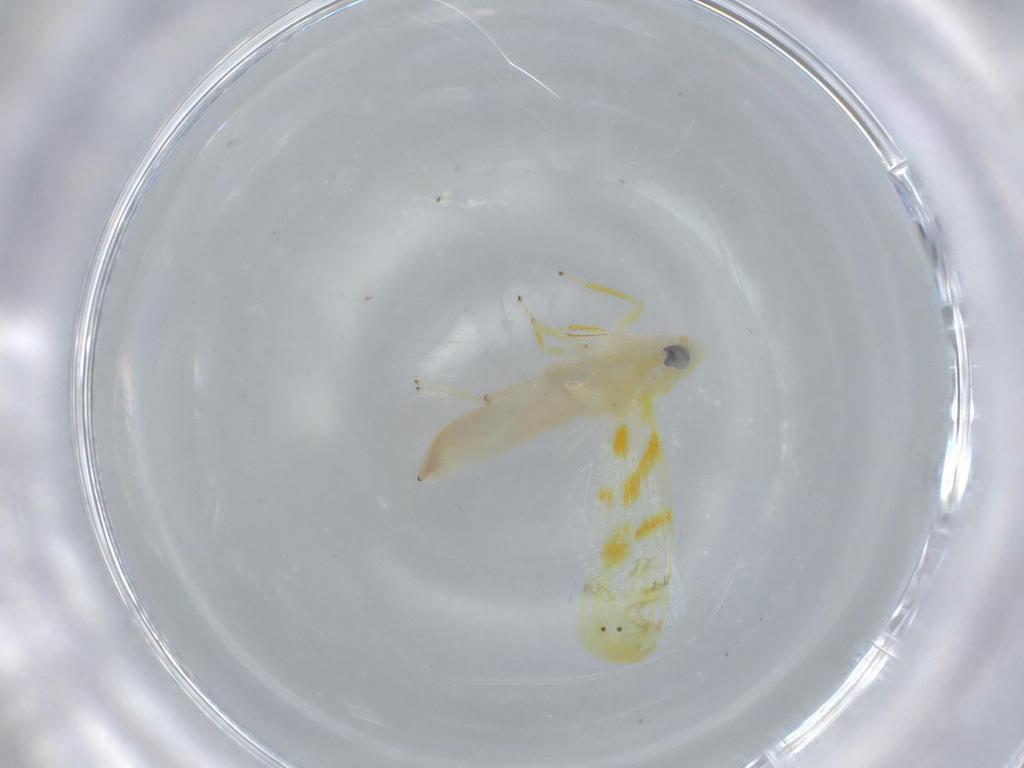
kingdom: Animalia
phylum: Arthropoda
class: Insecta
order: Hemiptera
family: Cicadellidae
